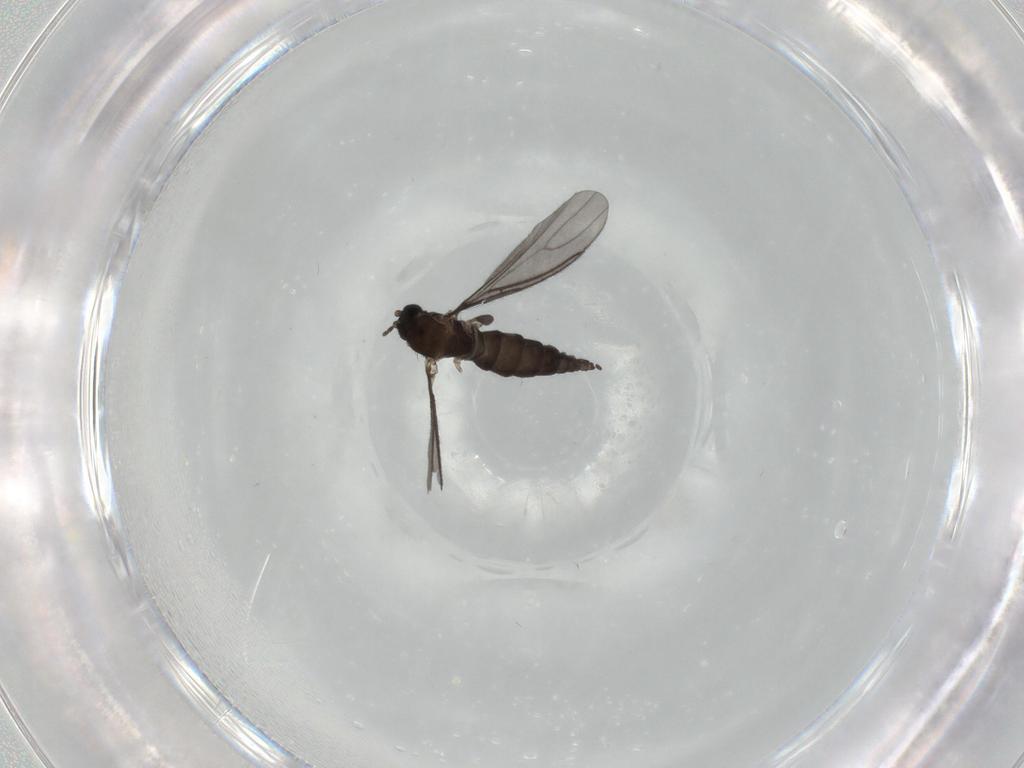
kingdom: Animalia
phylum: Arthropoda
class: Insecta
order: Diptera
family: Sciaridae
